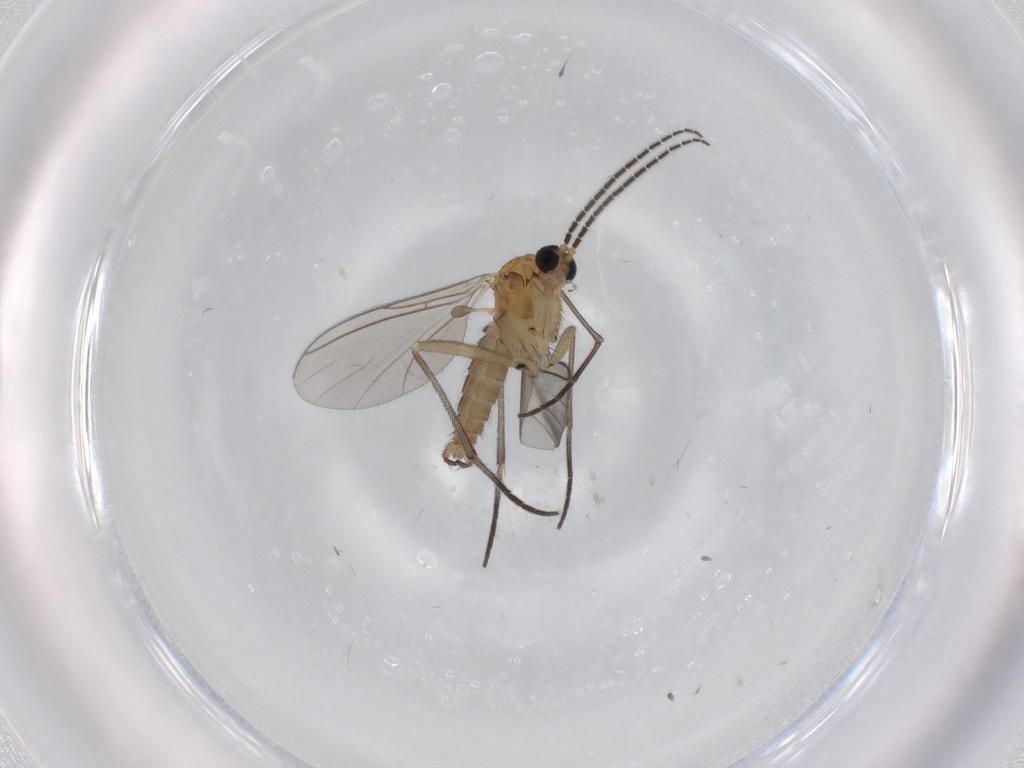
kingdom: Animalia
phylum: Arthropoda
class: Insecta
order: Diptera
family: Sciaridae
